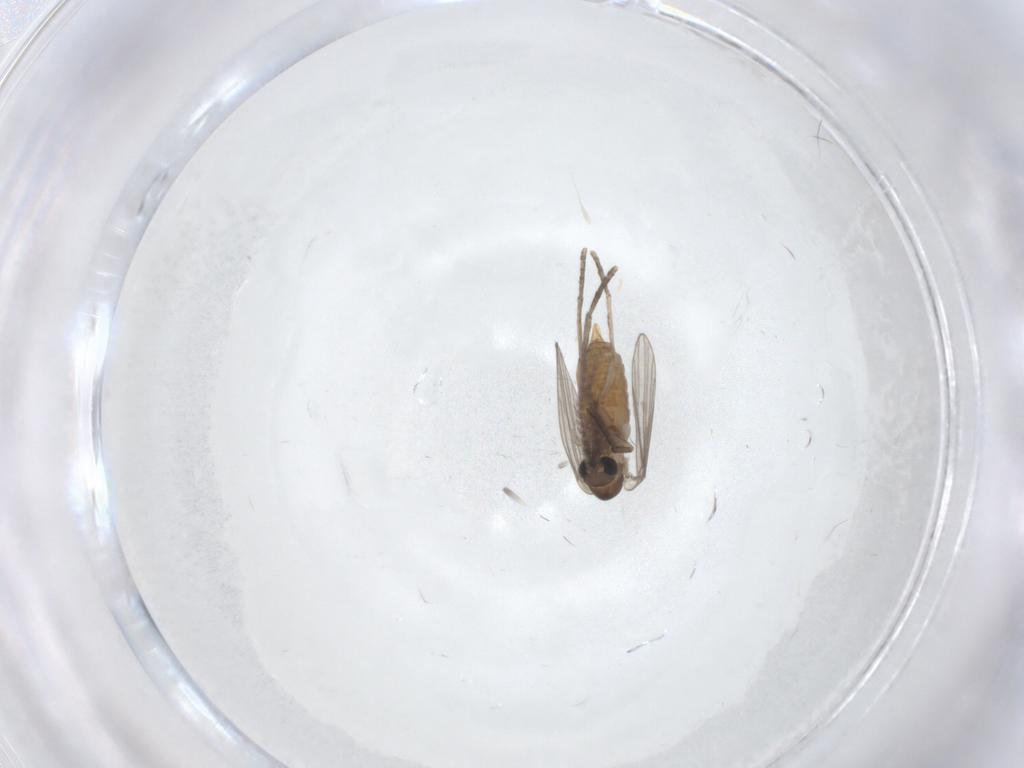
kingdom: Animalia
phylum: Arthropoda
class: Insecta
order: Diptera
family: Psychodidae
